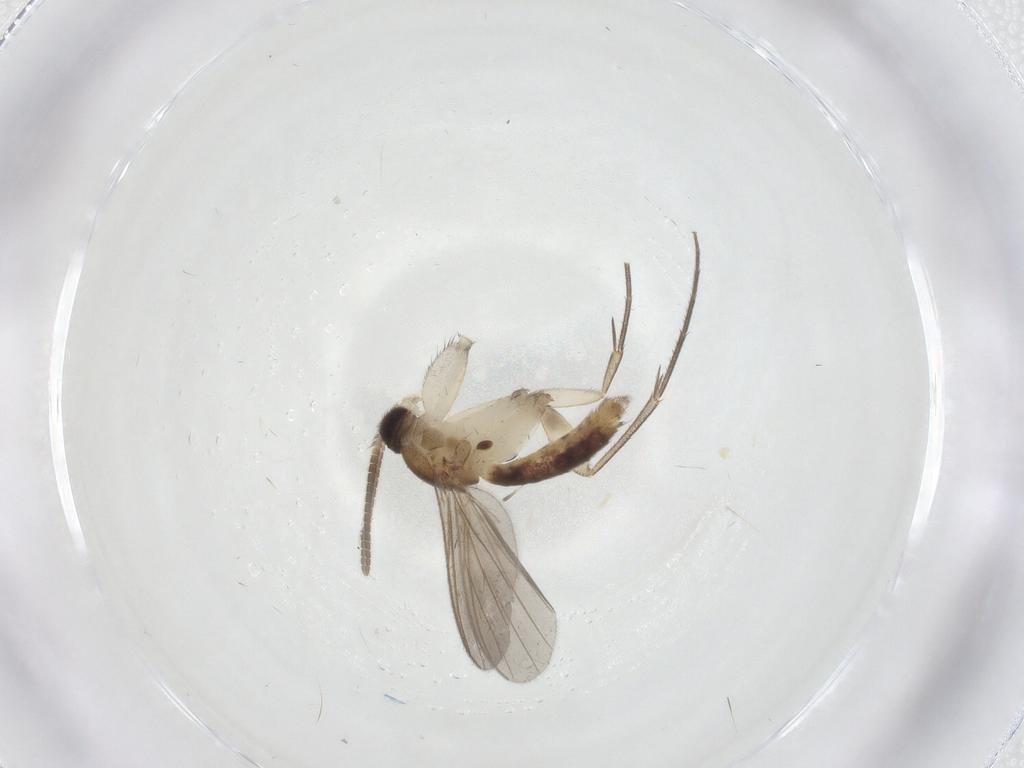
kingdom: Animalia
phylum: Arthropoda
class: Insecta
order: Diptera
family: Mycetophilidae
